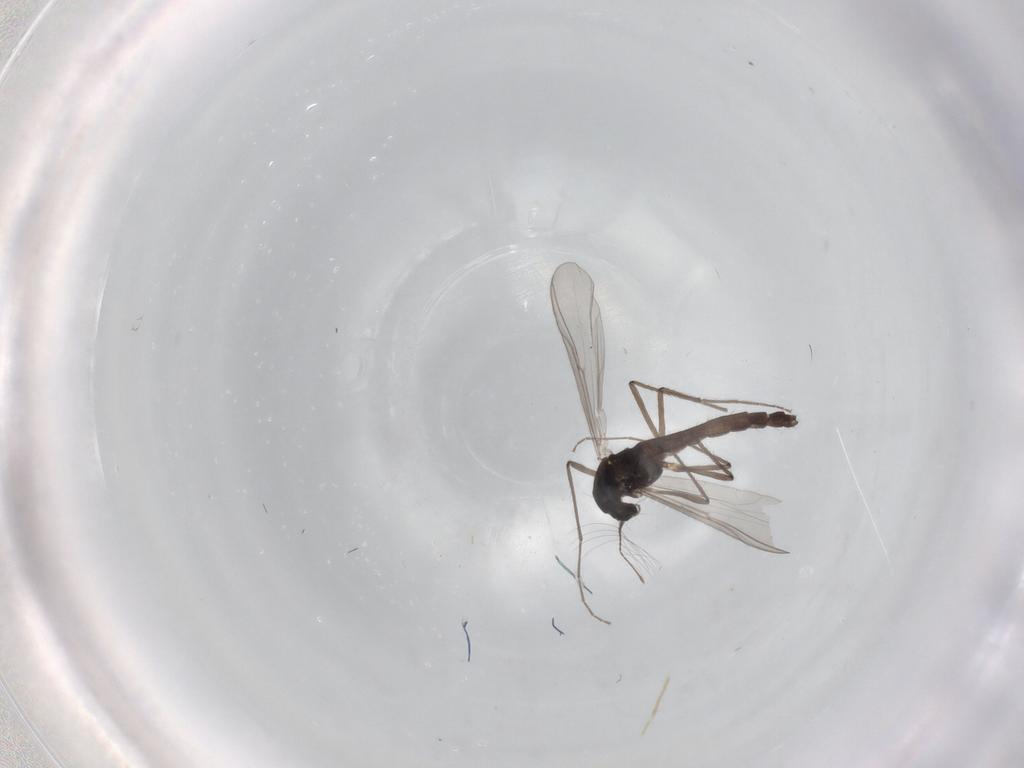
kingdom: Animalia
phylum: Arthropoda
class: Insecta
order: Diptera
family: Chironomidae
